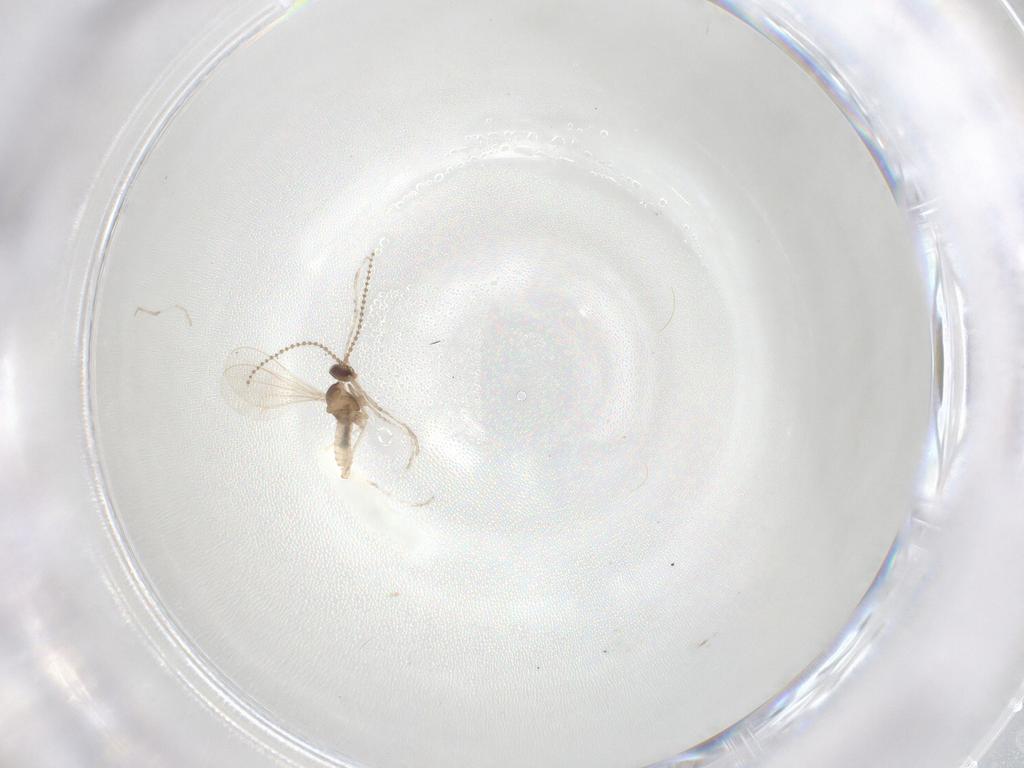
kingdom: Animalia
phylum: Arthropoda
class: Insecta
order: Diptera
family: Cecidomyiidae
